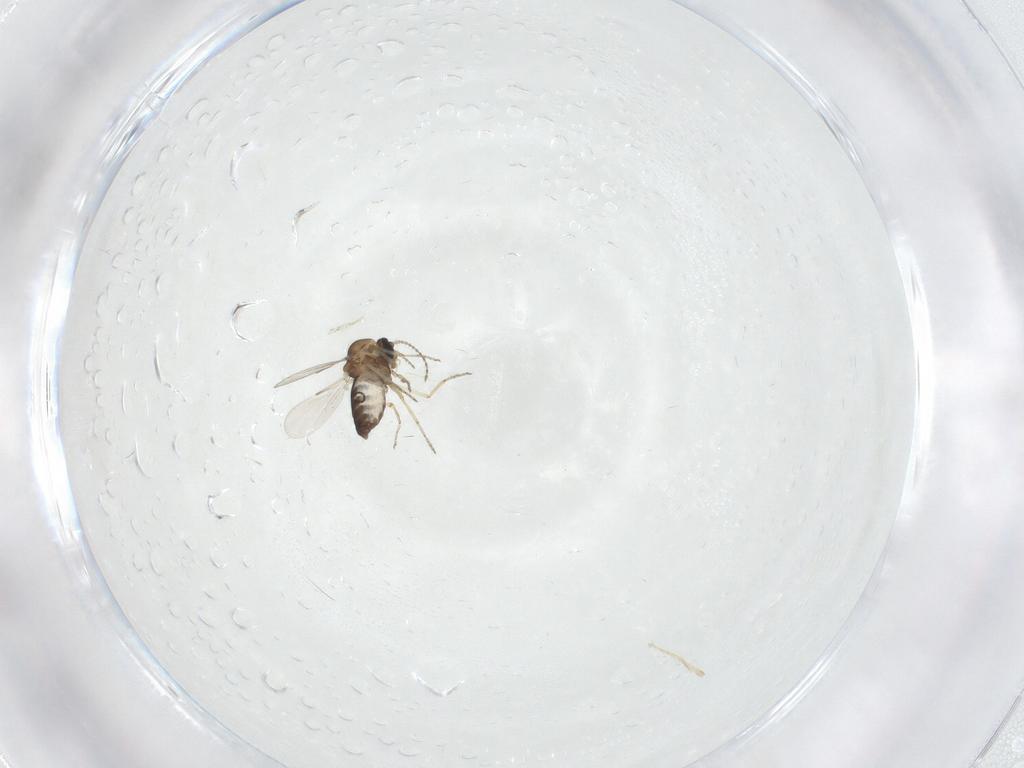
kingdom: Animalia
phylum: Arthropoda
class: Insecta
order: Diptera
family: Ceratopogonidae
